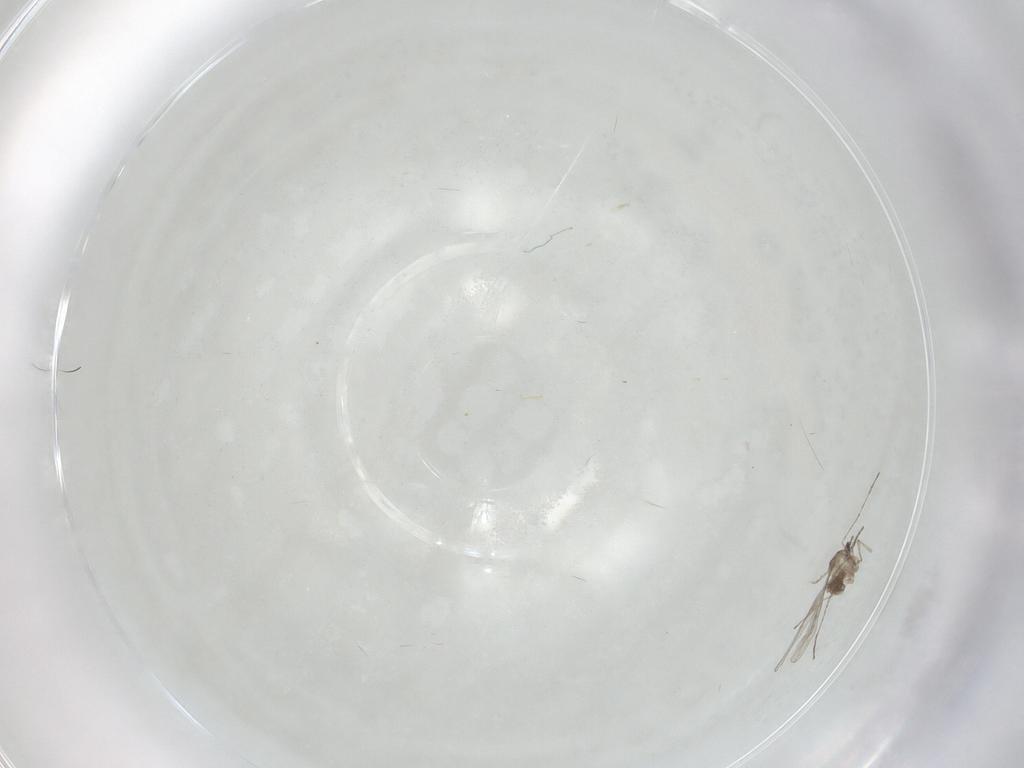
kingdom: Animalia
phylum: Arthropoda
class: Insecta
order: Diptera
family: Cecidomyiidae
